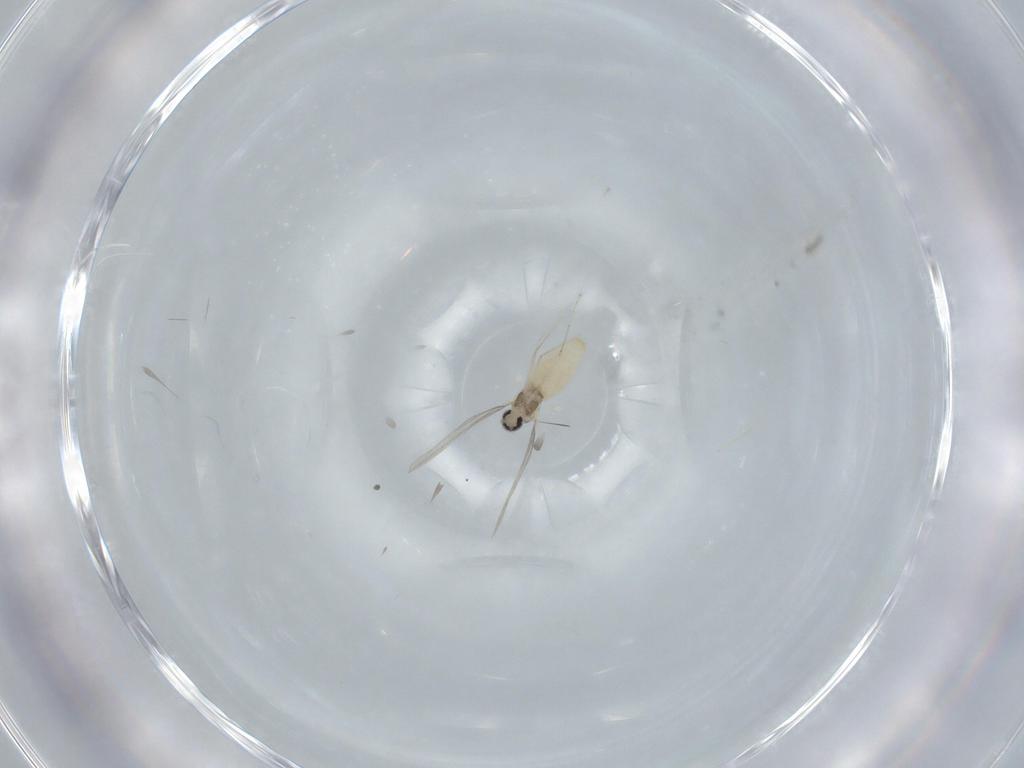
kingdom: Animalia
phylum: Arthropoda
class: Insecta
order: Diptera
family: Cecidomyiidae
